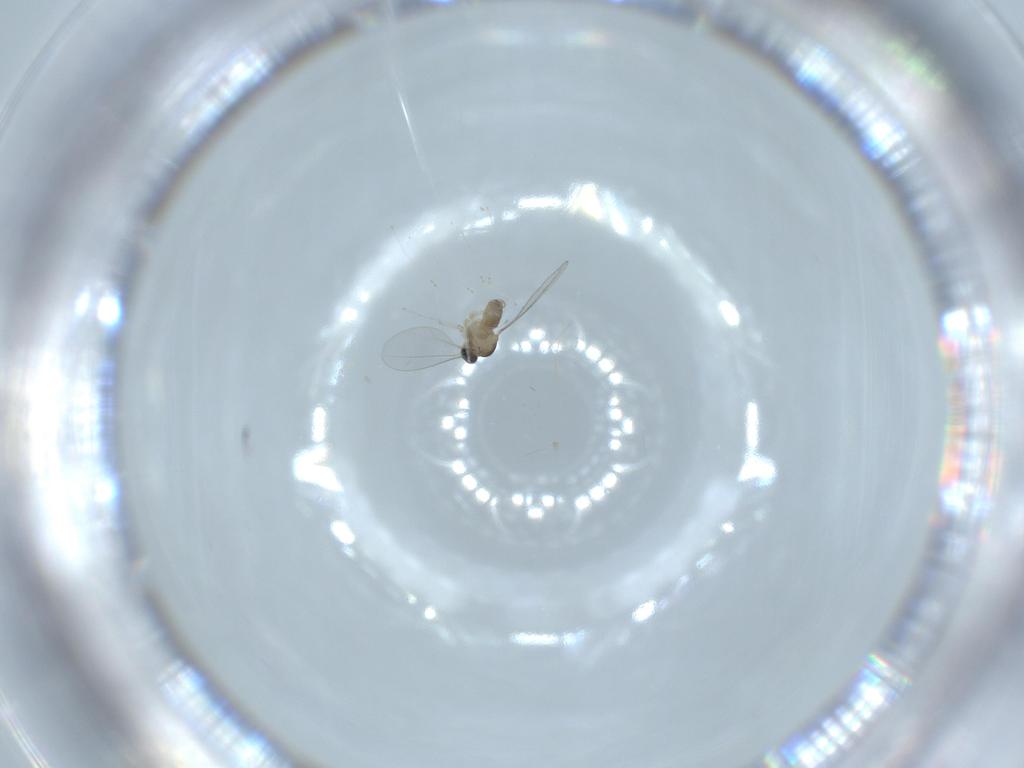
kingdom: Animalia
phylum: Arthropoda
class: Insecta
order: Diptera
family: Cecidomyiidae
